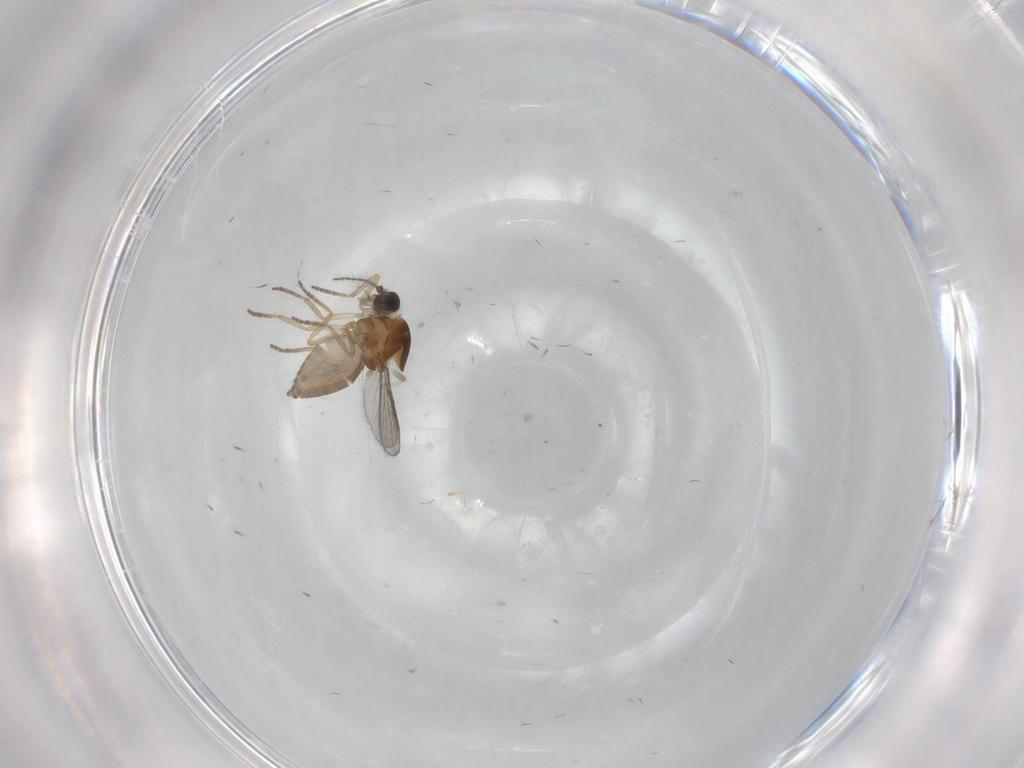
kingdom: Animalia
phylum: Arthropoda
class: Insecta
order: Diptera
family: Ceratopogonidae
